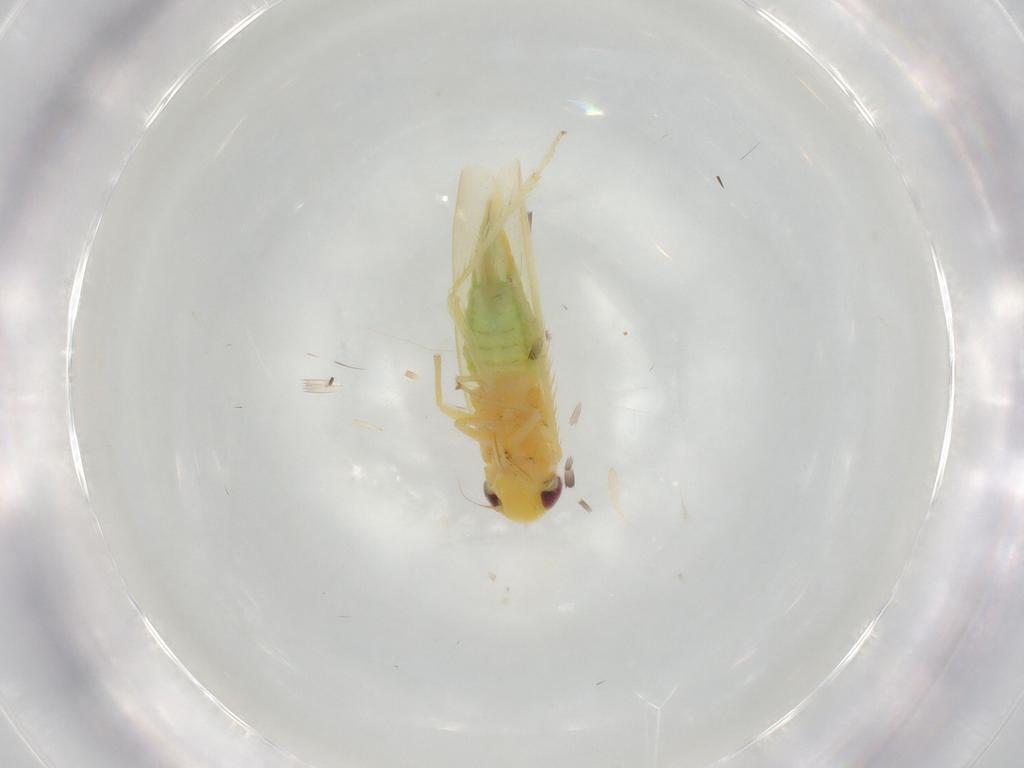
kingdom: Animalia
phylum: Arthropoda
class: Insecta
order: Hemiptera
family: Cicadellidae
